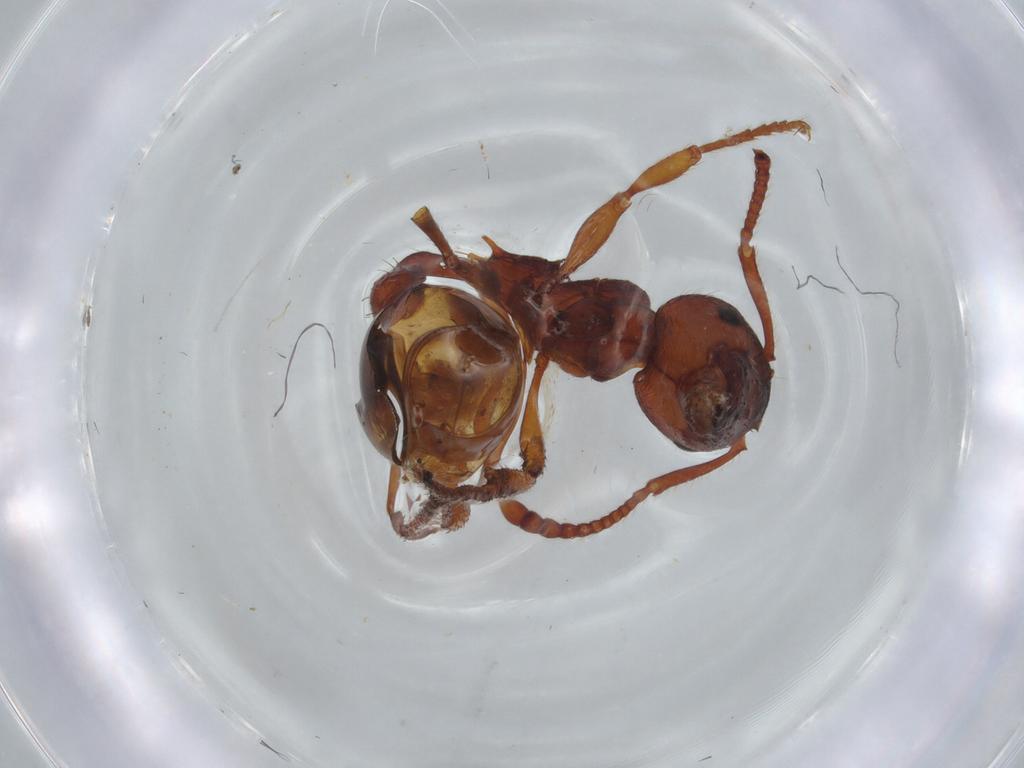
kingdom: Animalia
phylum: Arthropoda
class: Insecta
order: Hymenoptera
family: Formicidae
